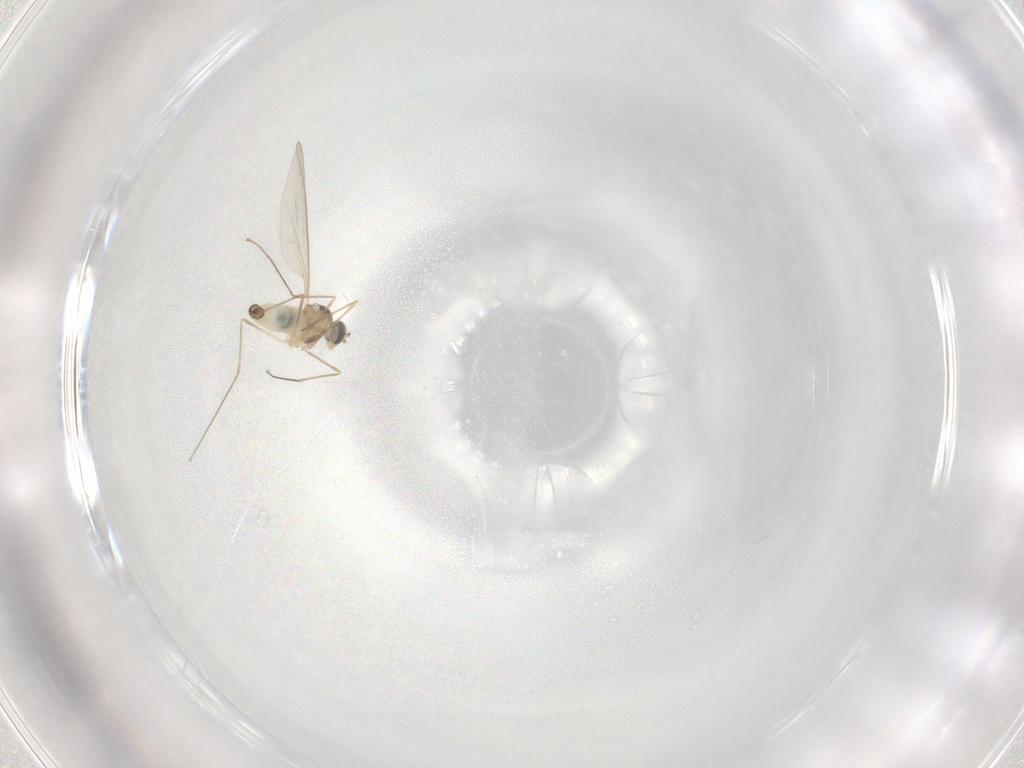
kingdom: Animalia
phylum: Arthropoda
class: Insecta
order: Diptera
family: Cecidomyiidae
